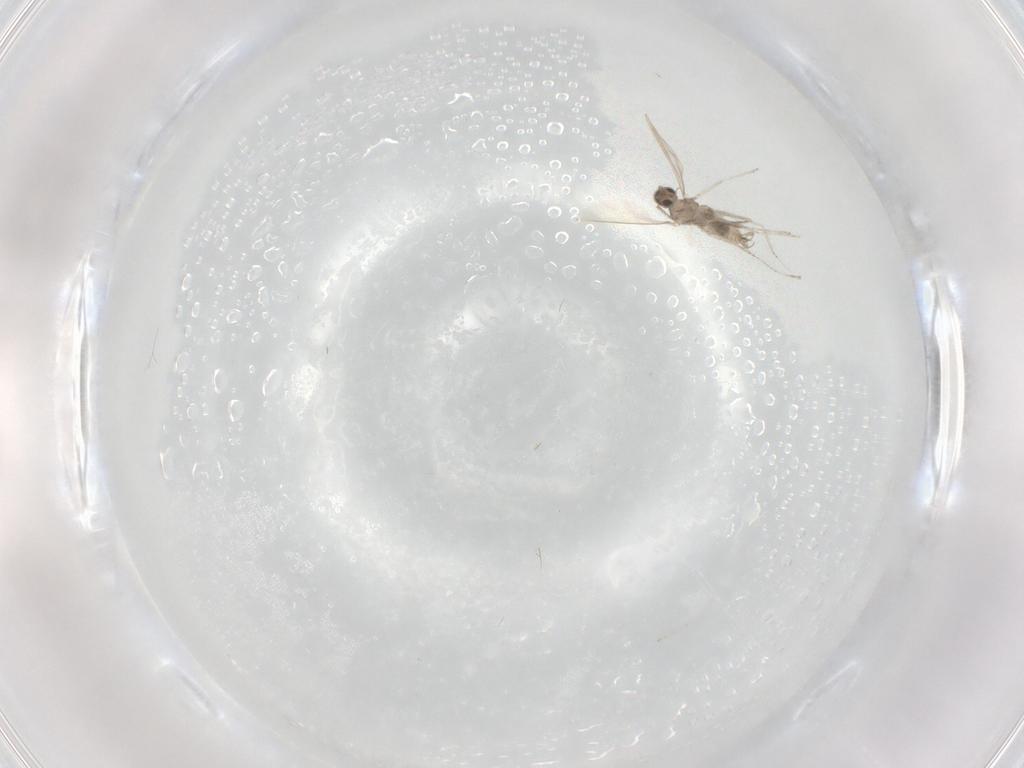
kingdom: Animalia
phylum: Arthropoda
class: Insecta
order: Diptera
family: Cecidomyiidae
